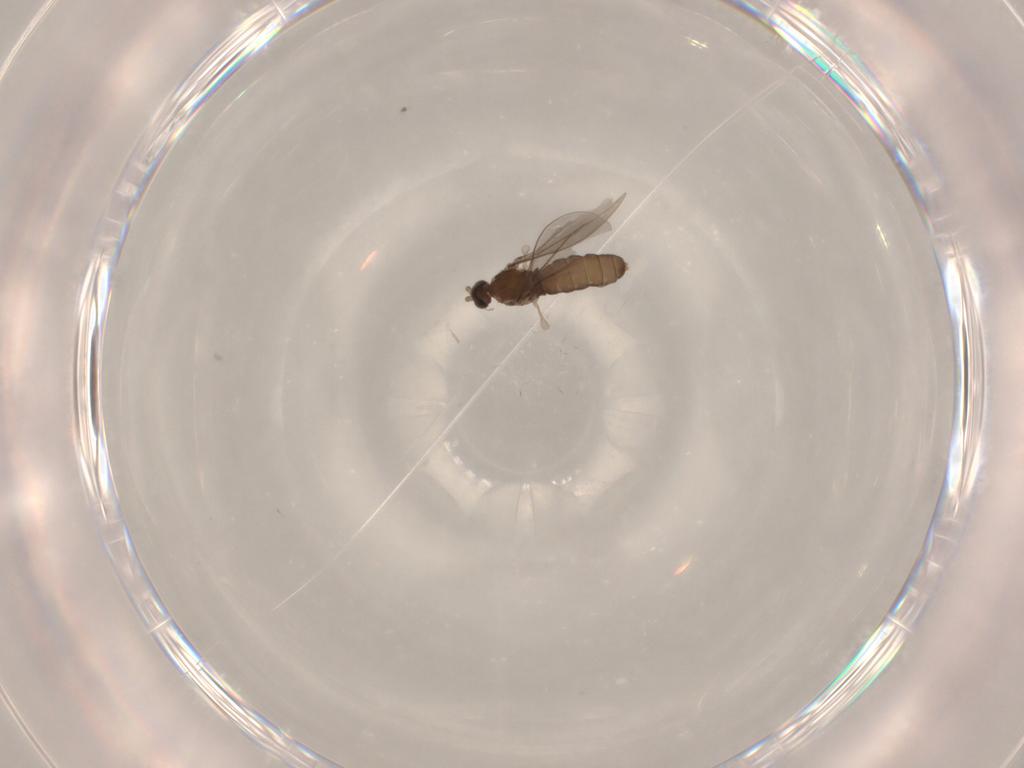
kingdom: Animalia
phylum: Arthropoda
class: Insecta
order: Diptera
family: Cecidomyiidae
